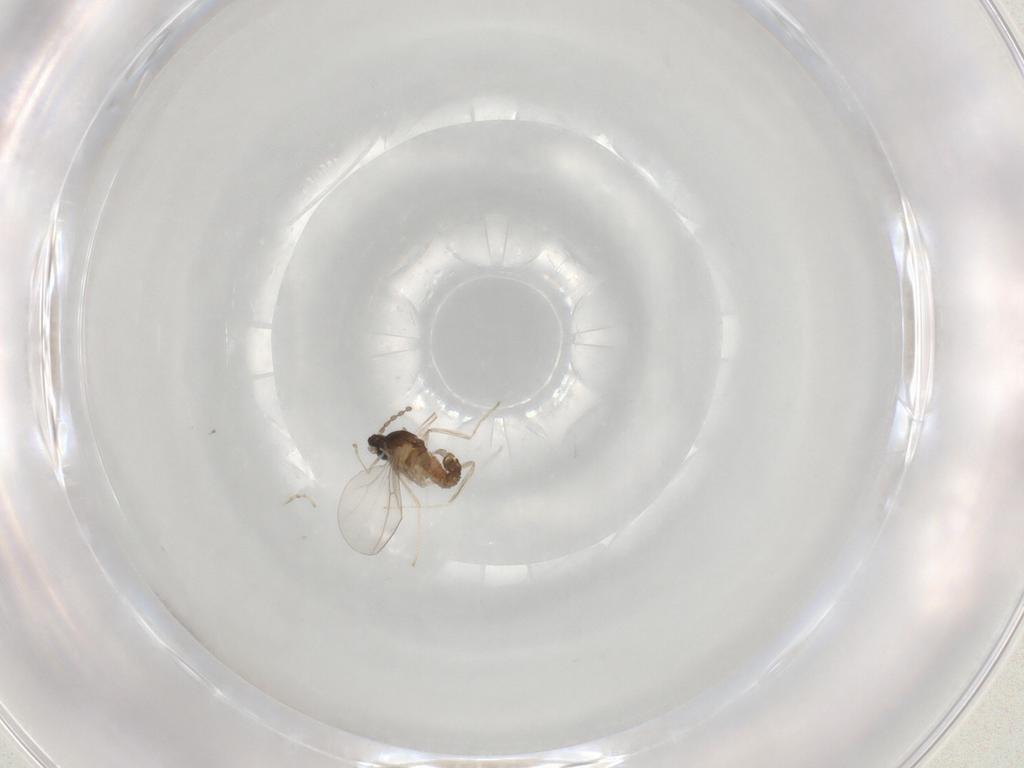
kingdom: Animalia
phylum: Arthropoda
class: Insecta
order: Diptera
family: Cecidomyiidae
